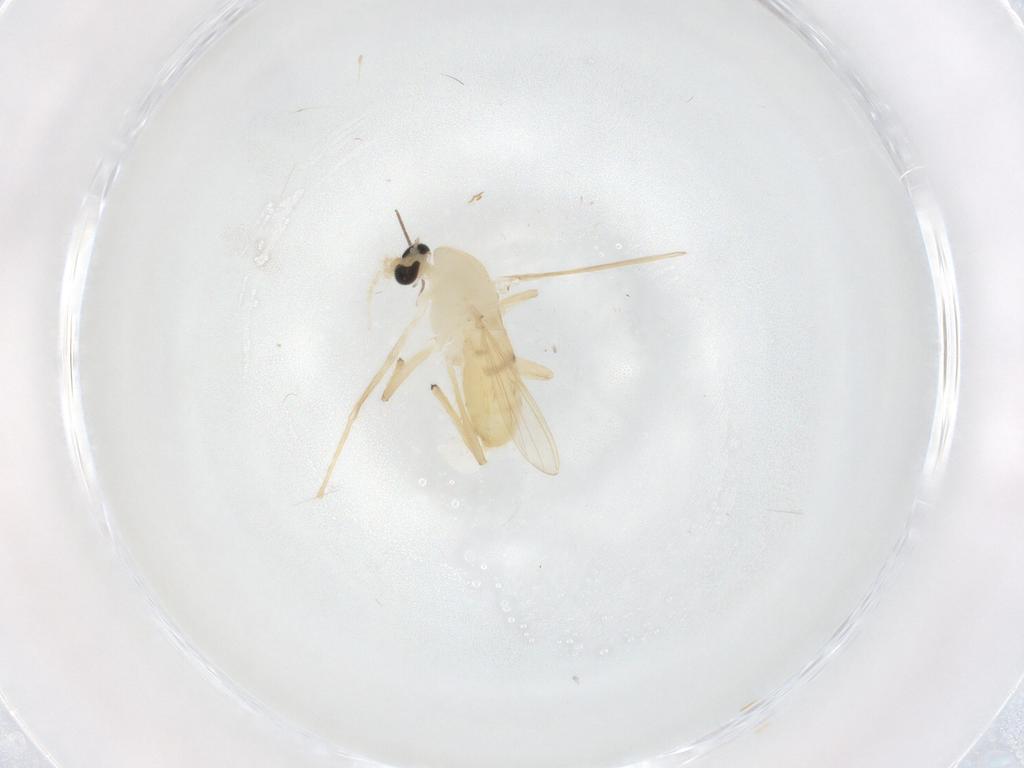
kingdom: Animalia
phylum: Arthropoda
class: Insecta
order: Diptera
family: Chironomidae
